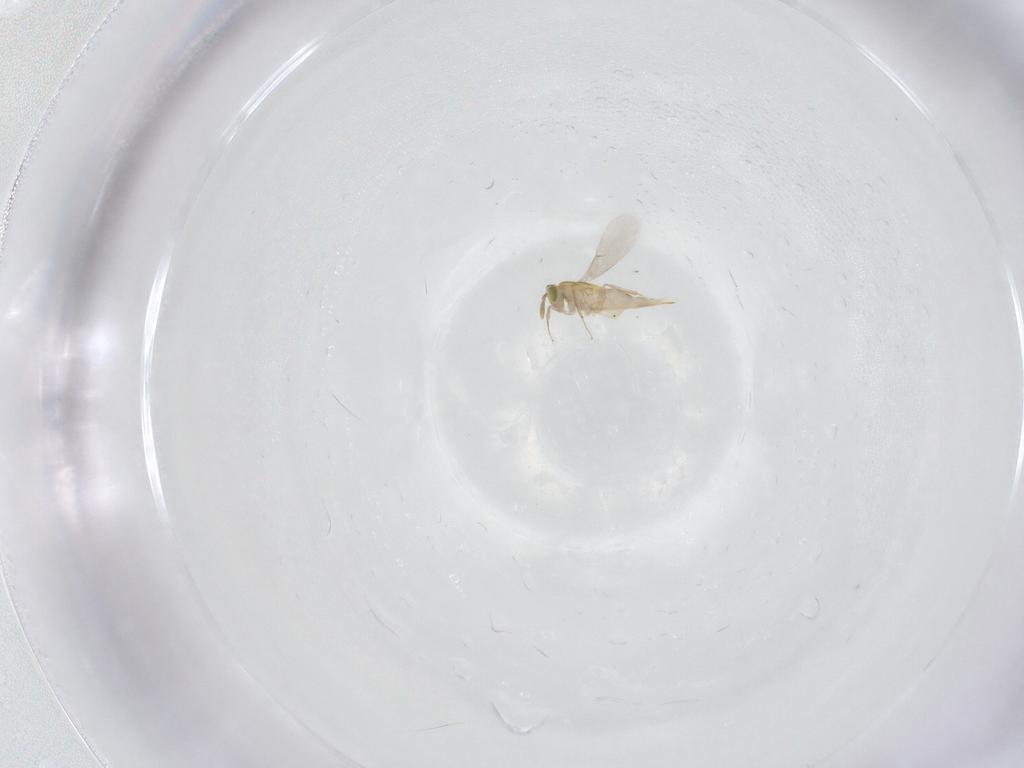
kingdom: Animalia
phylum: Arthropoda
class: Insecta
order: Hymenoptera
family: Aphelinidae
